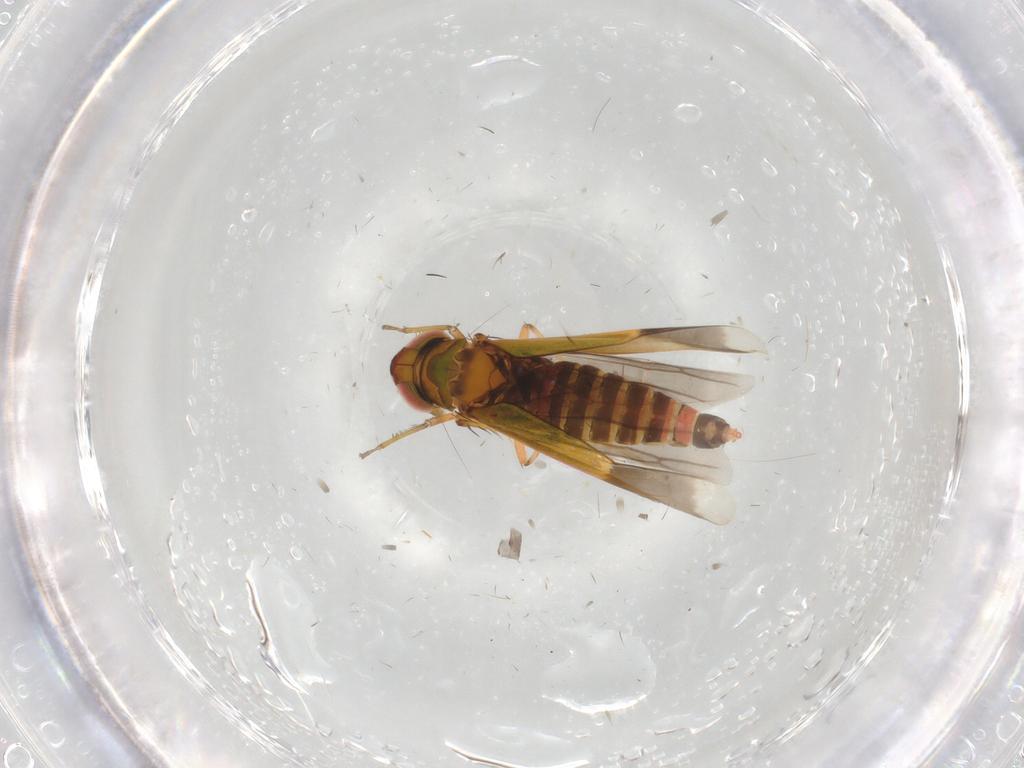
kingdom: Animalia
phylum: Arthropoda
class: Insecta
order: Hemiptera
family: Cicadellidae
